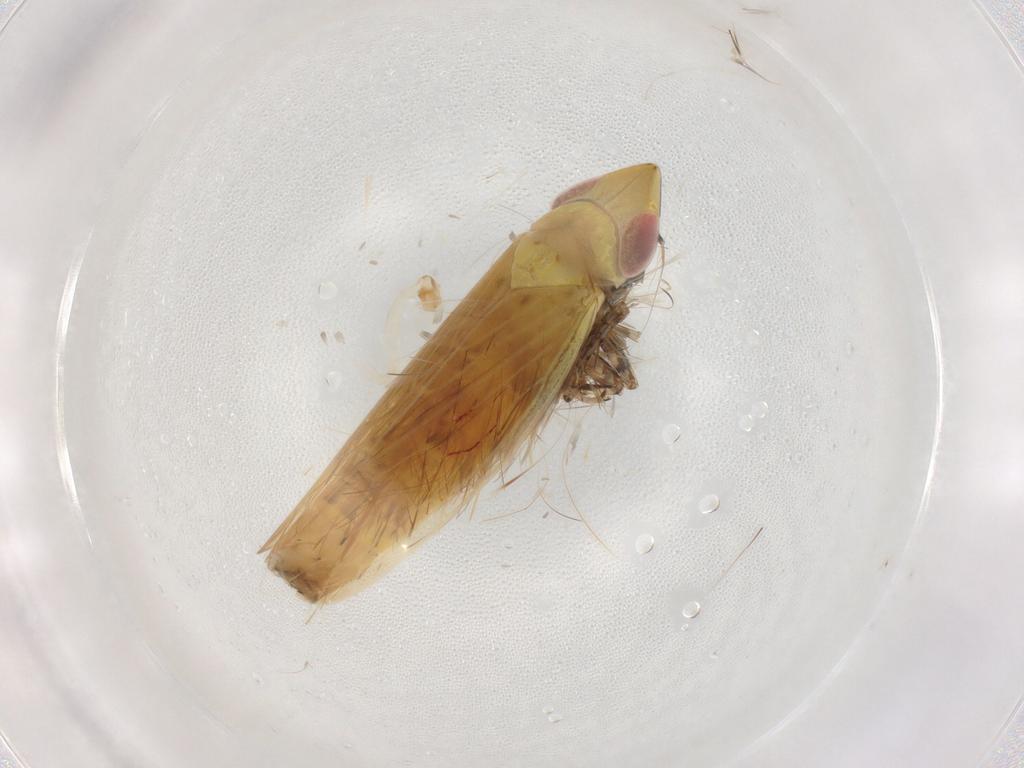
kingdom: Animalia
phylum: Arthropoda
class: Insecta
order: Hemiptera
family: Cicadellidae
